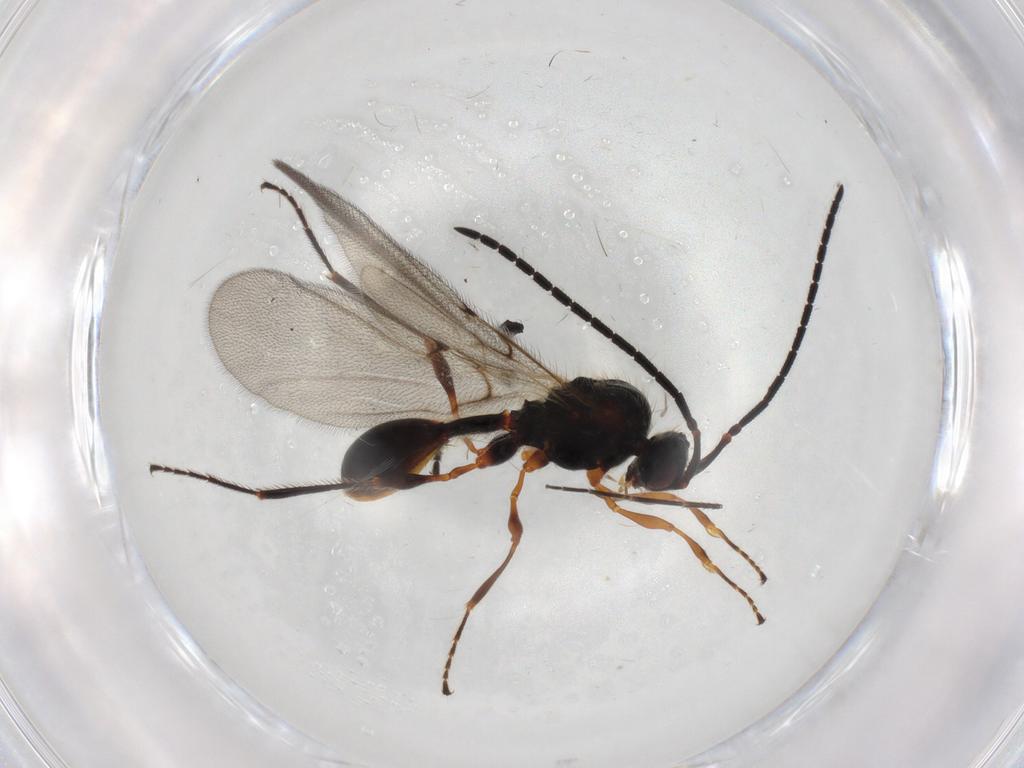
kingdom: Animalia
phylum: Arthropoda
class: Insecta
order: Hymenoptera
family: Diapriidae
